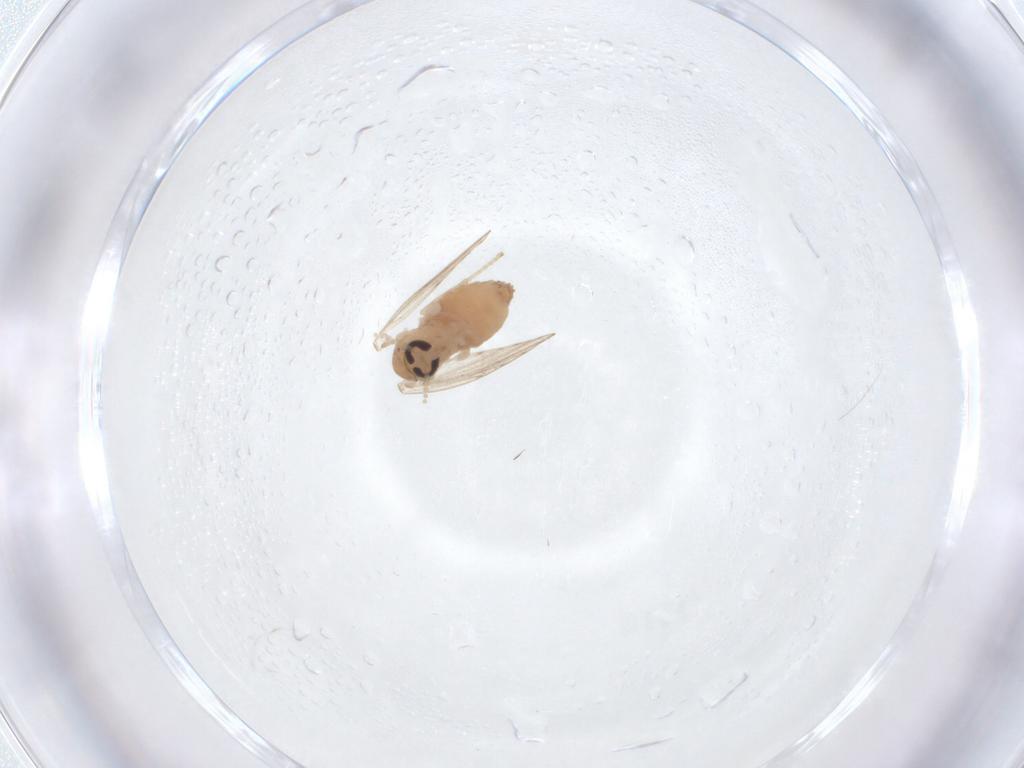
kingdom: Animalia
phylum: Arthropoda
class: Insecta
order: Diptera
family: Psychodidae
